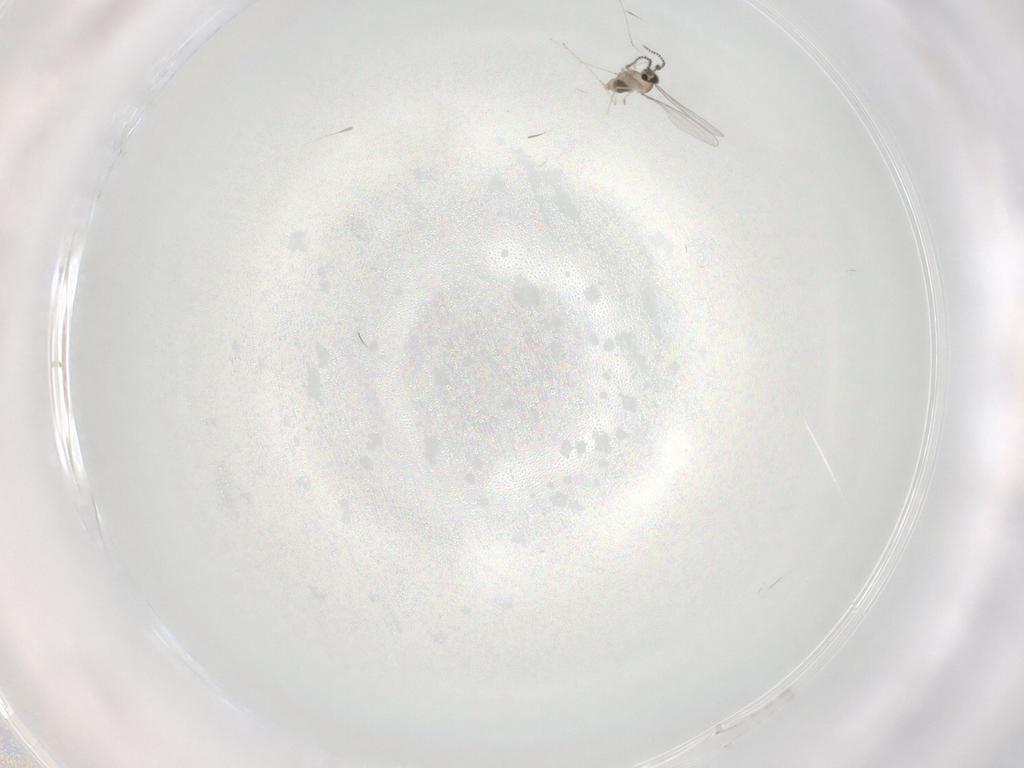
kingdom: Animalia
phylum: Arthropoda
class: Insecta
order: Diptera
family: Cecidomyiidae
